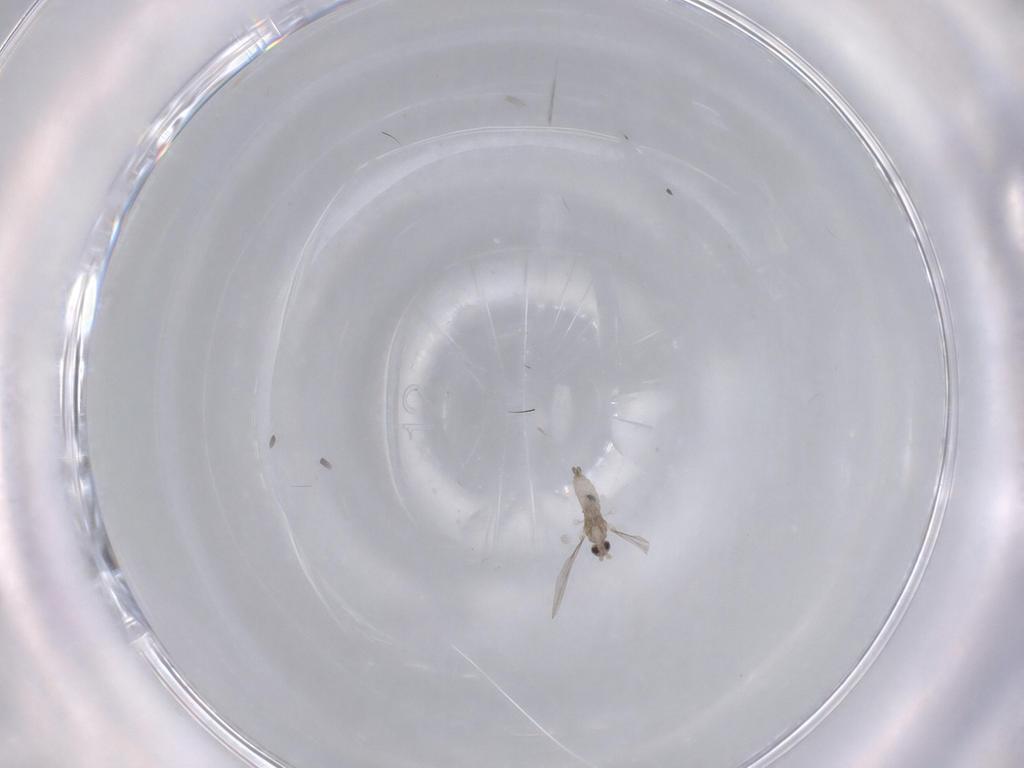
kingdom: Animalia
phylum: Arthropoda
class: Insecta
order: Diptera
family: Cecidomyiidae
